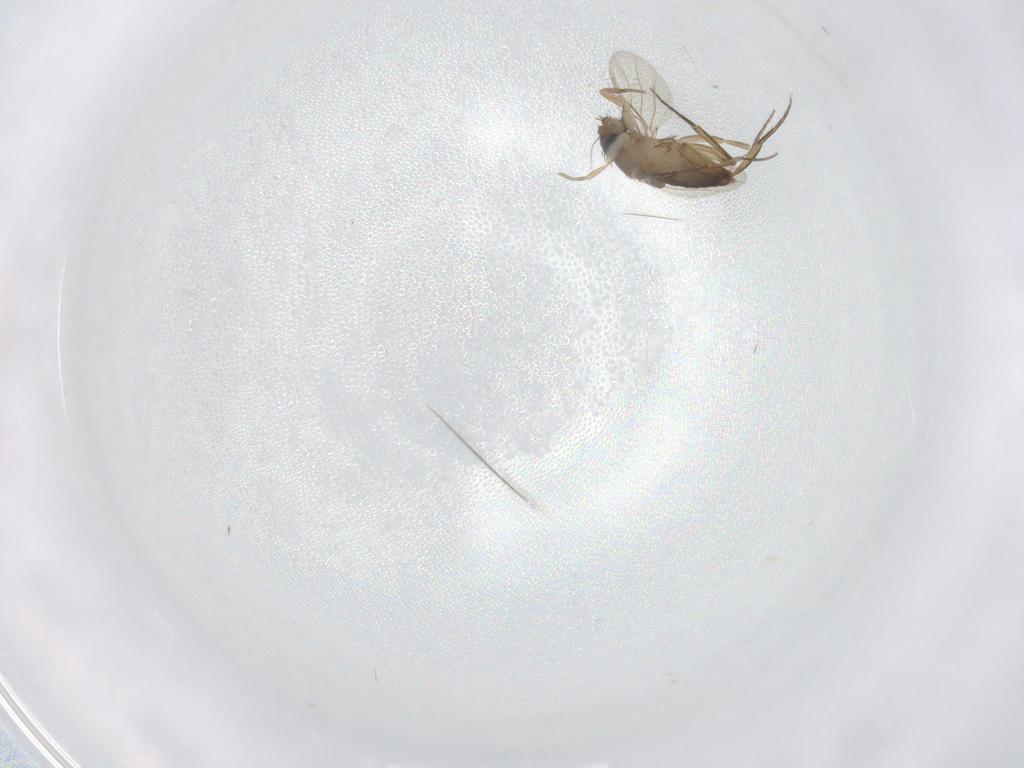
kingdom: Animalia
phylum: Arthropoda
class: Insecta
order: Diptera
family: Phoridae
